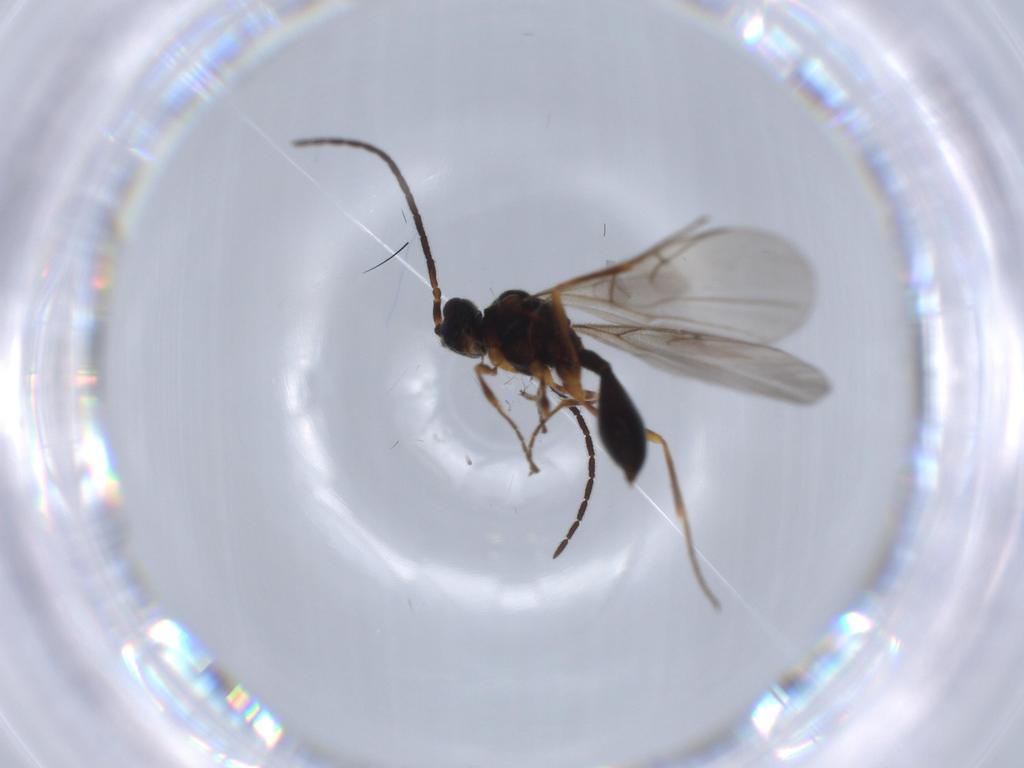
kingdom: Animalia
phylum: Arthropoda
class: Insecta
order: Hymenoptera
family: Diapriidae
